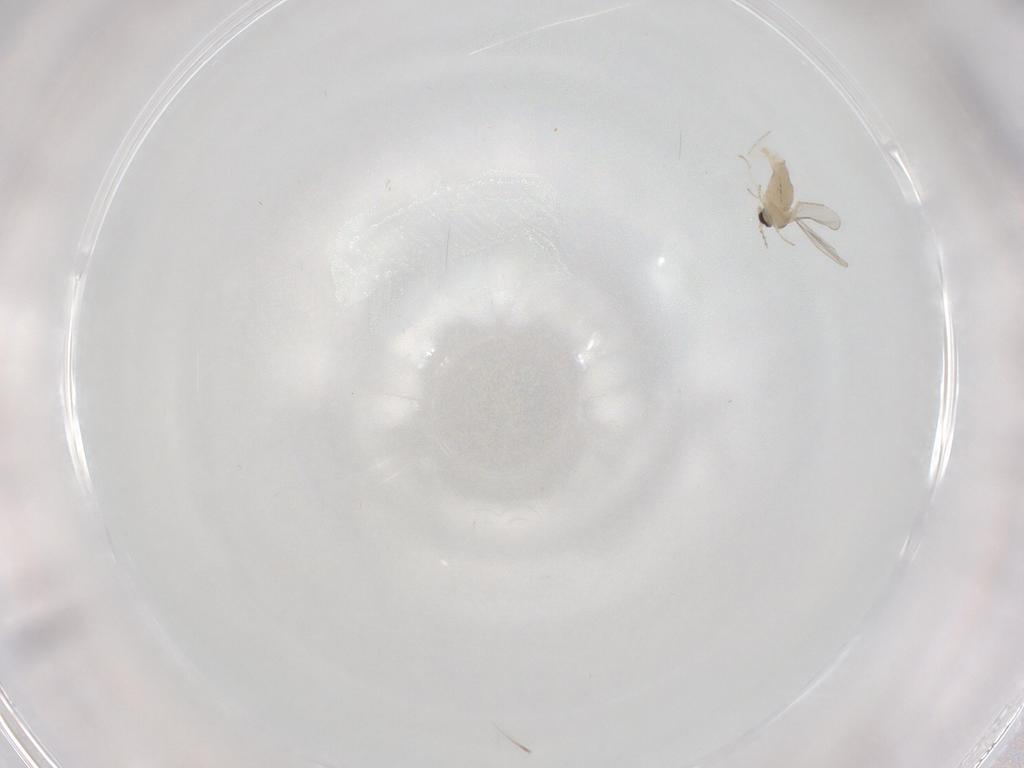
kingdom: Animalia
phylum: Arthropoda
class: Insecta
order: Diptera
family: Cecidomyiidae
